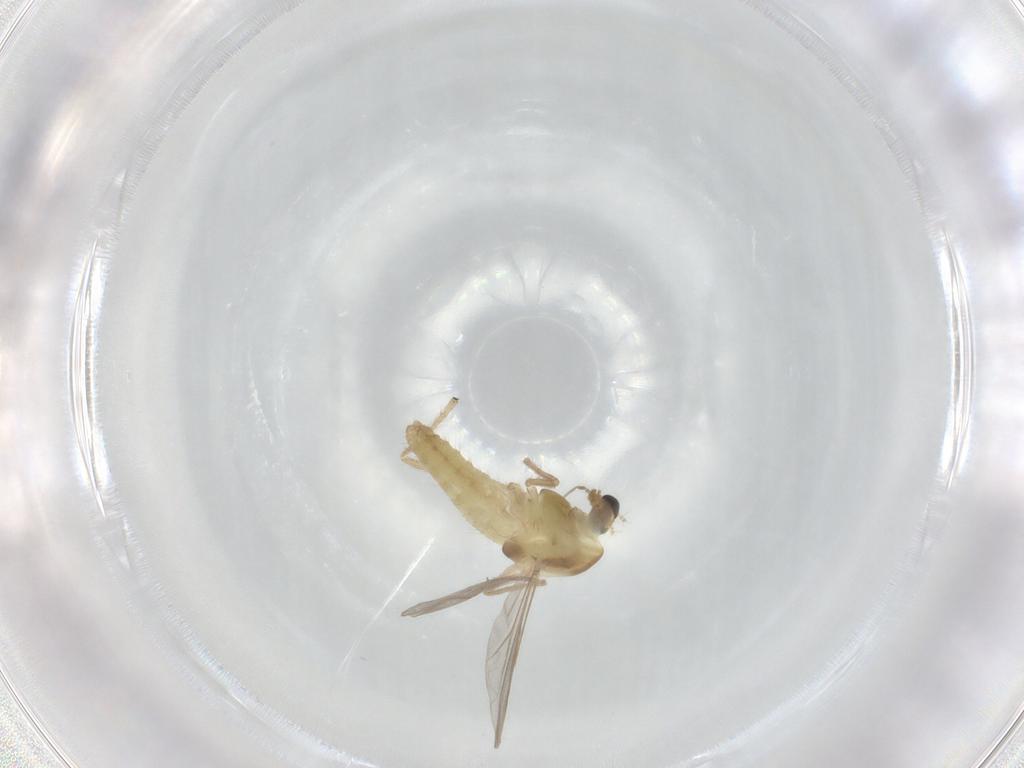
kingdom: Animalia
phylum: Arthropoda
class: Insecta
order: Diptera
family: Chironomidae
